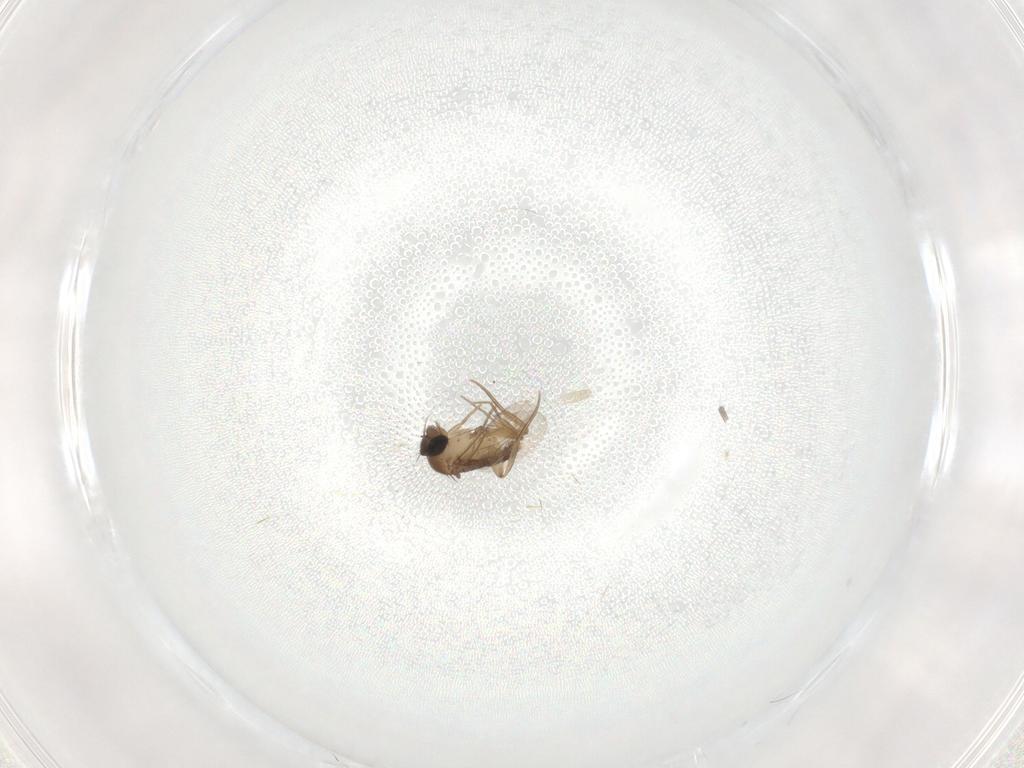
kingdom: Animalia
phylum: Arthropoda
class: Insecta
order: Diptera
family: Phoridae
